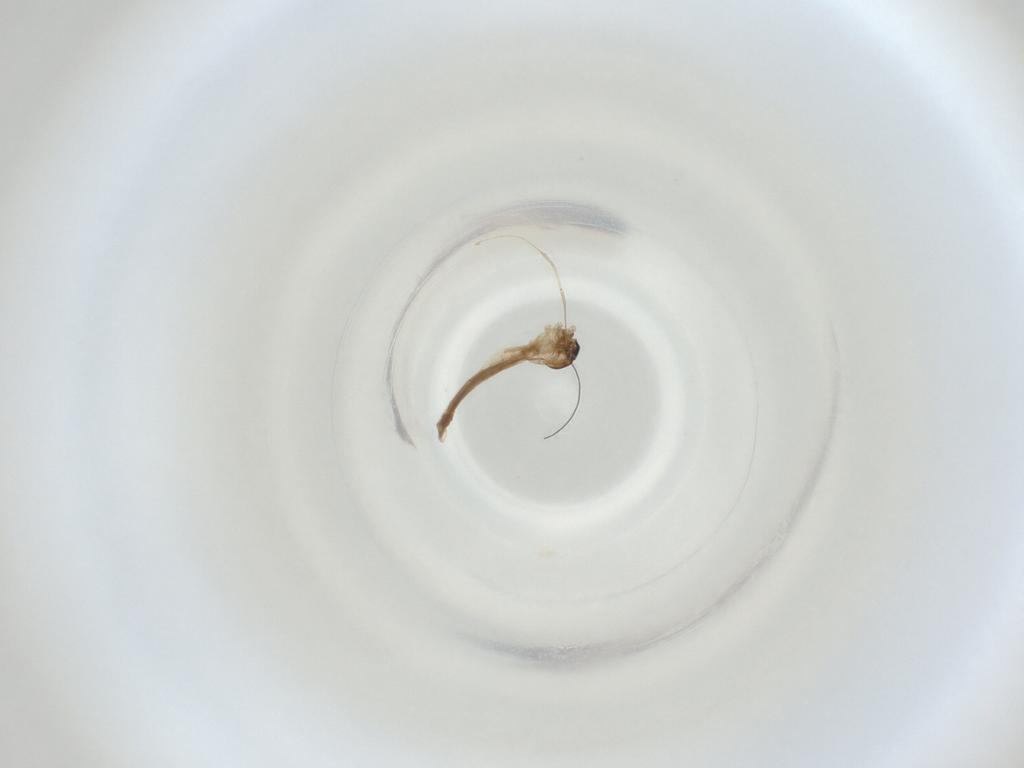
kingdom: Animalia
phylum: Arthropoda
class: Insecta
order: Diptera
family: Cecidomyiidae
